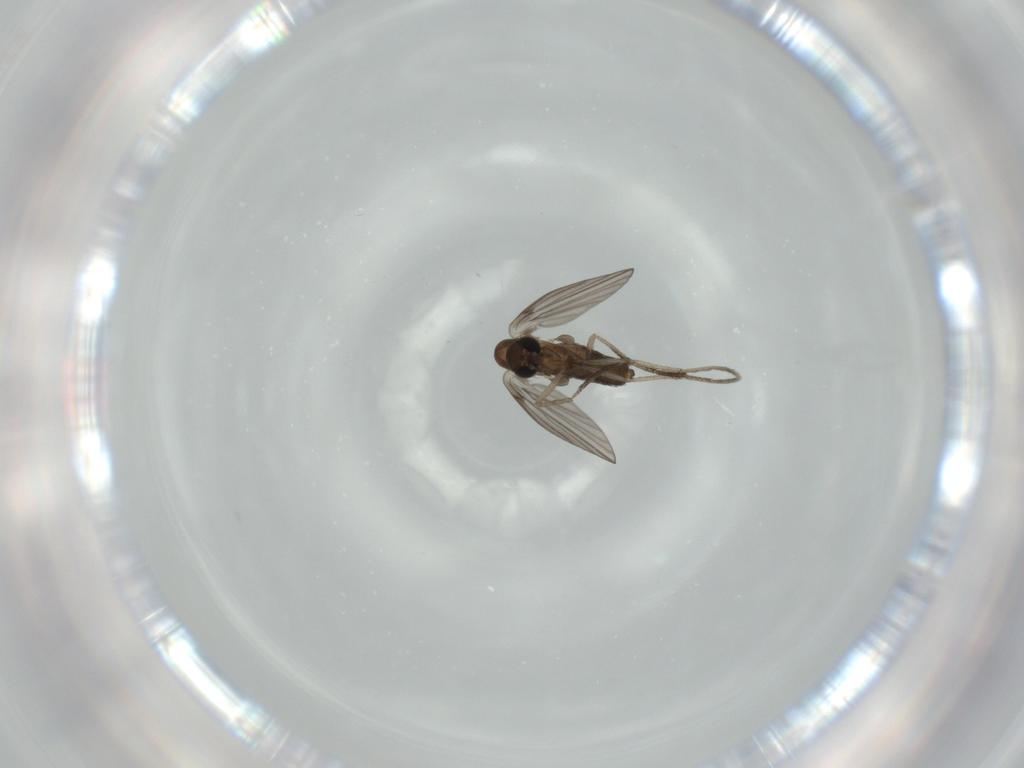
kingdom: Animalia
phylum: Arthropoda
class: Insecta
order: Diptera
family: Psychodidae
